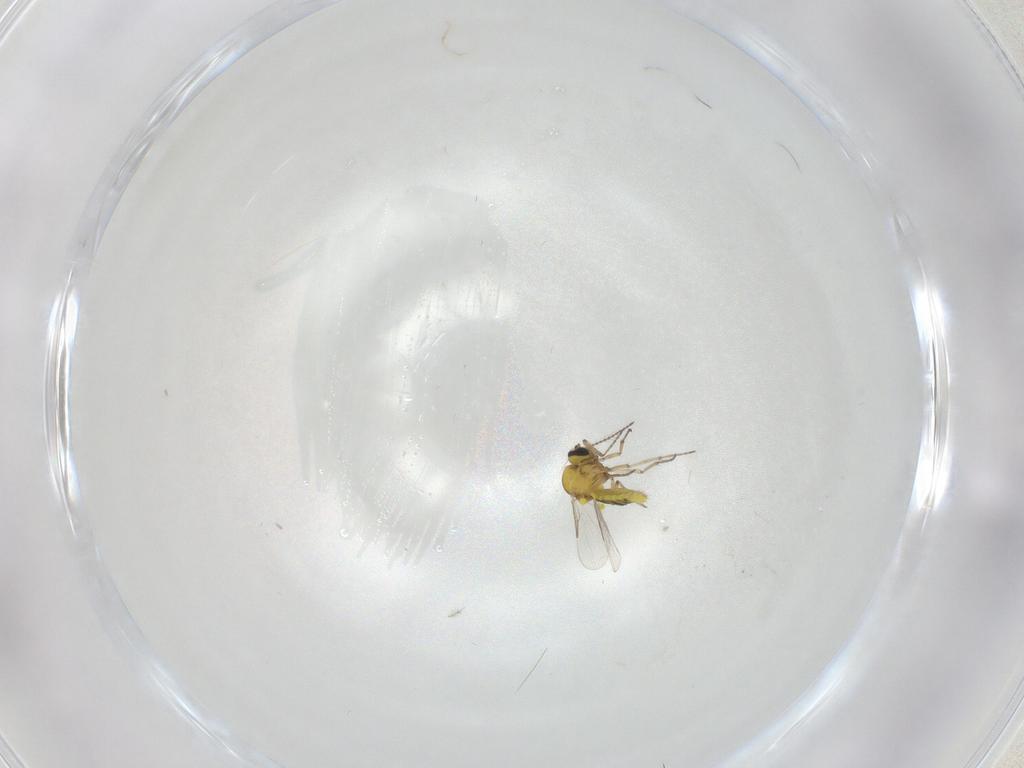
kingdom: Animalia
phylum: Arthropoda
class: Insecta
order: Diptera
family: Ceratopogonidae
